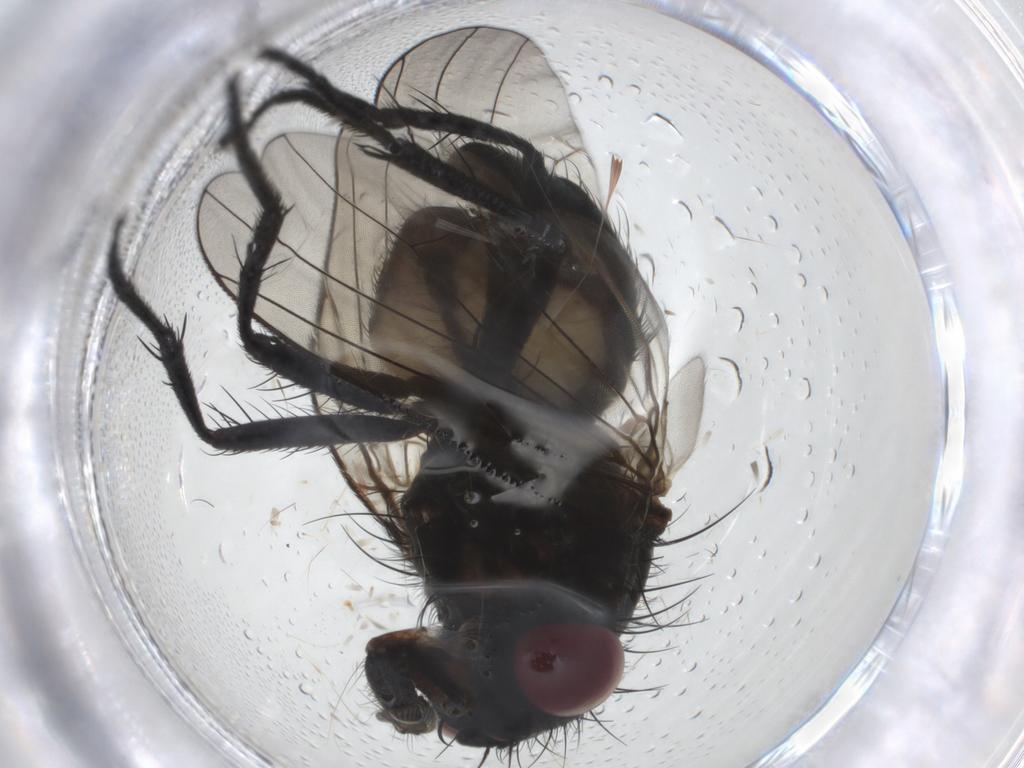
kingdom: Animalia
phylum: Arthropoda
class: Insecta
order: Diptera
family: Fannia
